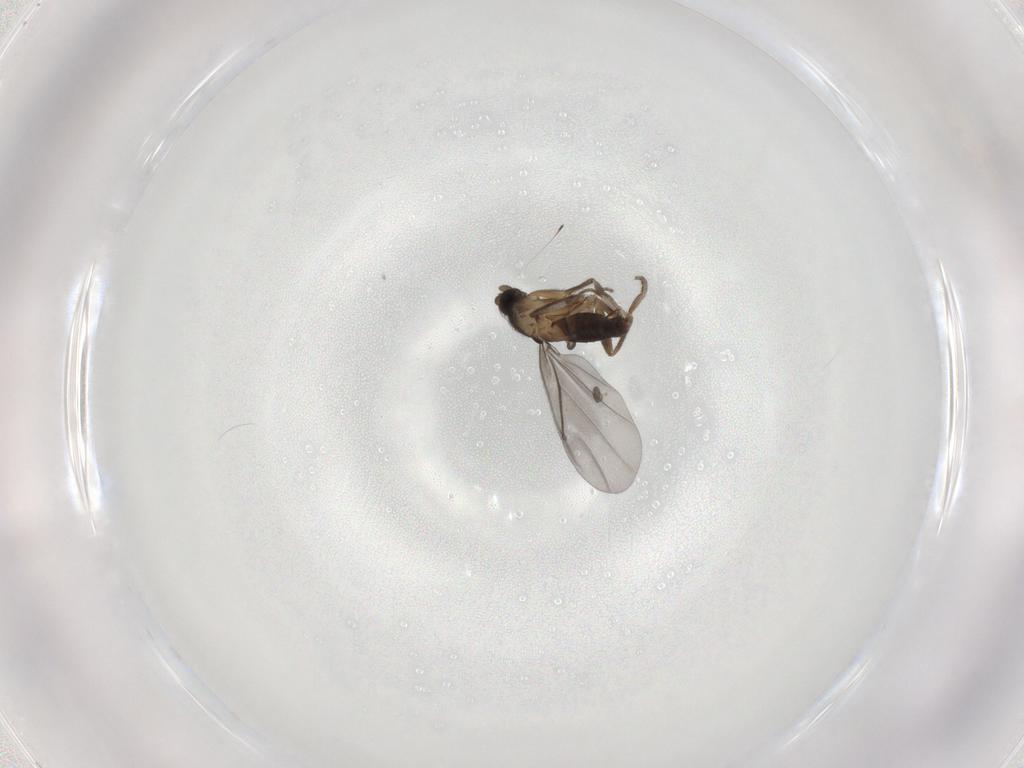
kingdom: Animalia
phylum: Arthropoda
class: Insecta
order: Diptera
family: Phoridae
